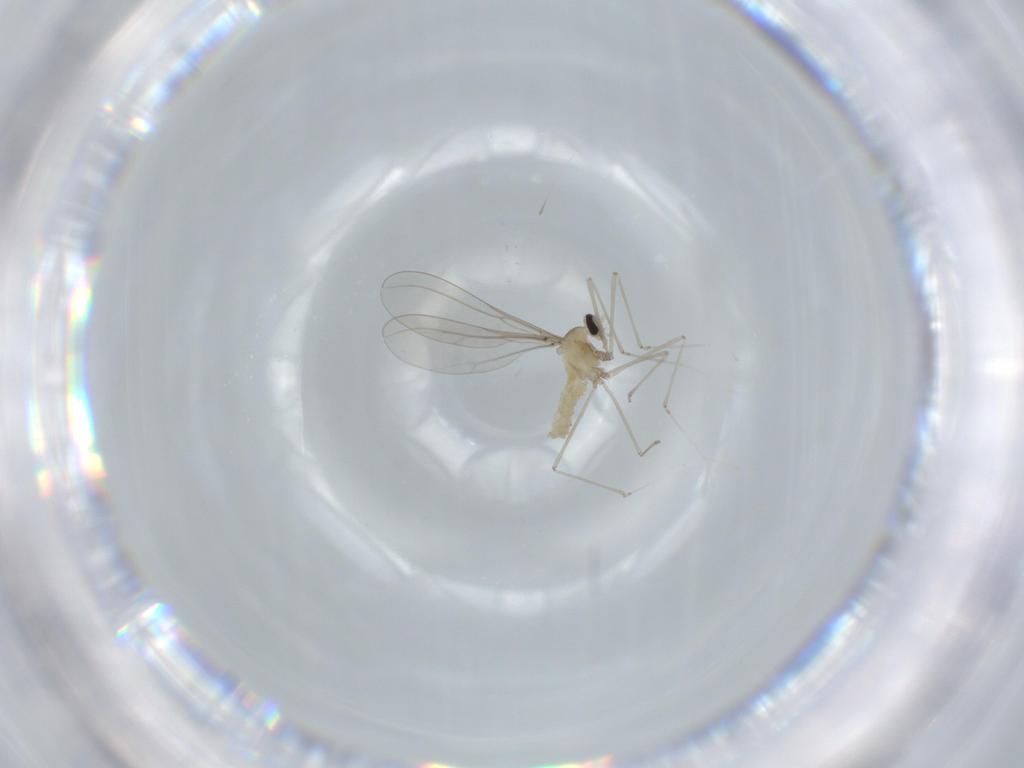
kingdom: Animalia
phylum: Arthropoda
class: Insecta
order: Diptera
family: Cecidomyiidae
